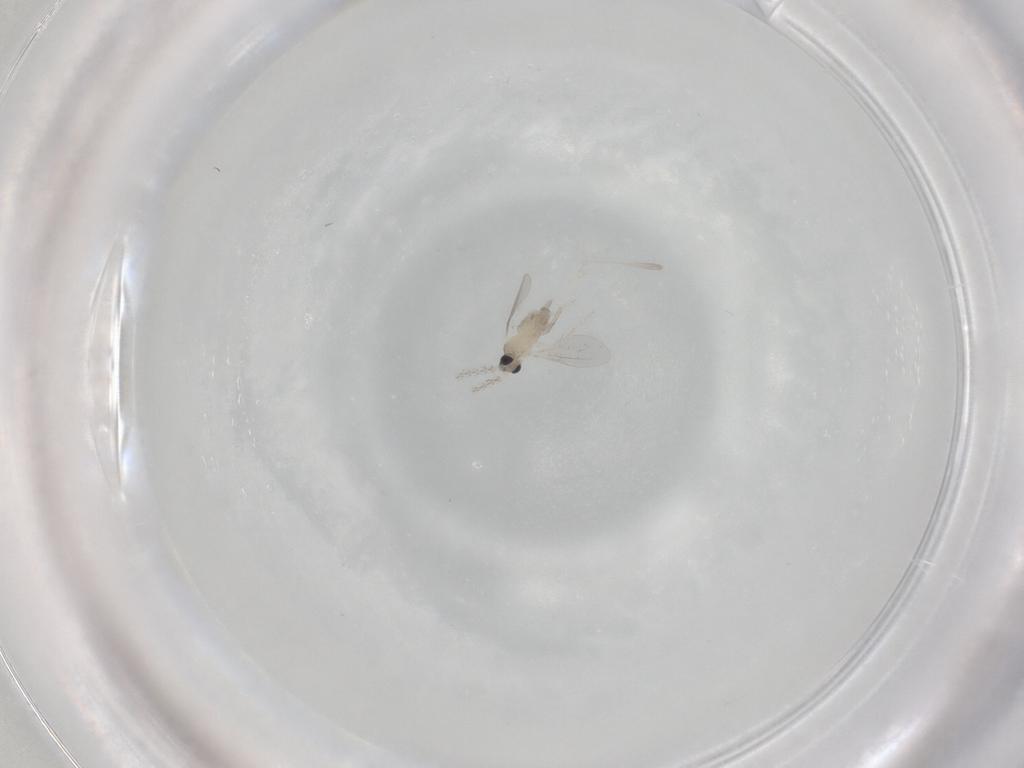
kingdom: Animalia
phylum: Arthropoda
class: Insecta
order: Diptera
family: Cecidomyiidae
